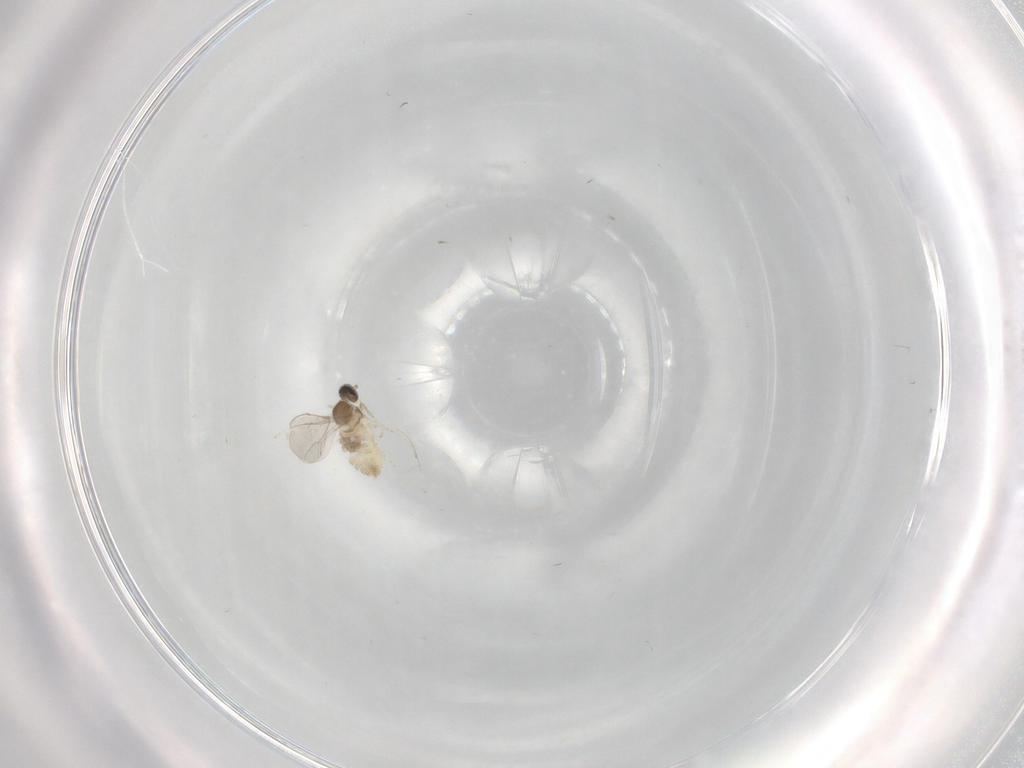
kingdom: Animalia
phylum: Arthropoda
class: Insecta
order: Diptera
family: Cecidomyiidae
